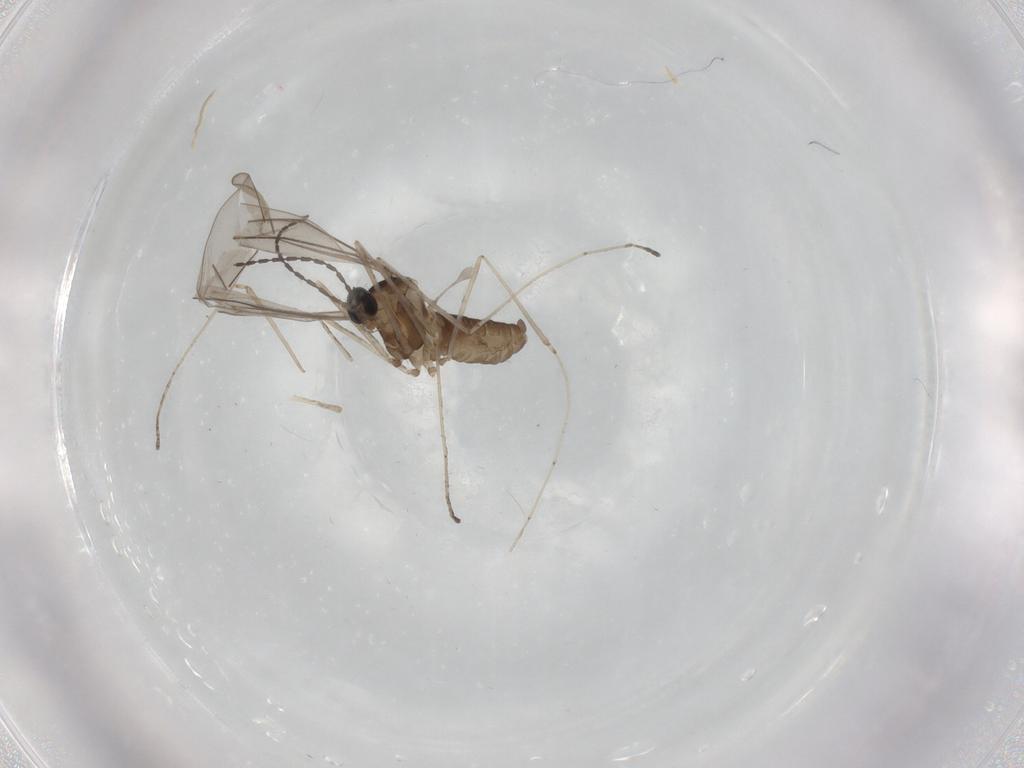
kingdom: Animalia
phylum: Arthropoda
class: Insecta
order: Diptera
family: Cecidomyiidae
